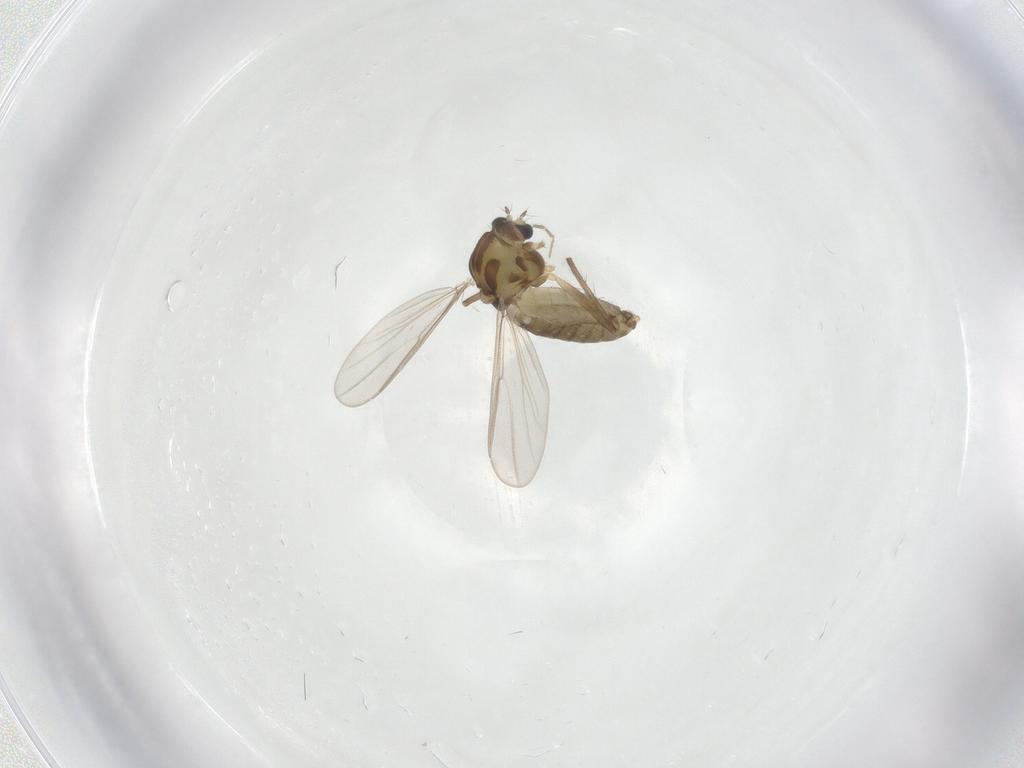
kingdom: Animalia
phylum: Arthropoda
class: Insecta
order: Diptera
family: Chironomidae
